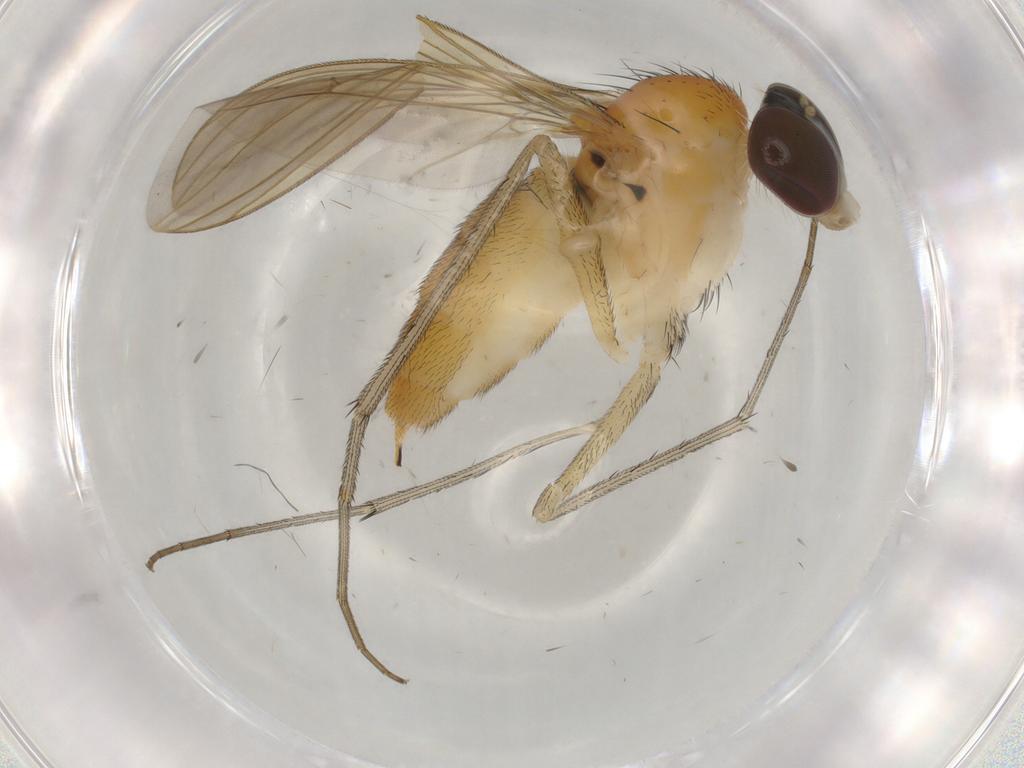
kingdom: Animalia
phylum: Arthropoda
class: Insecta
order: Diptera
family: Dolichopodidae
